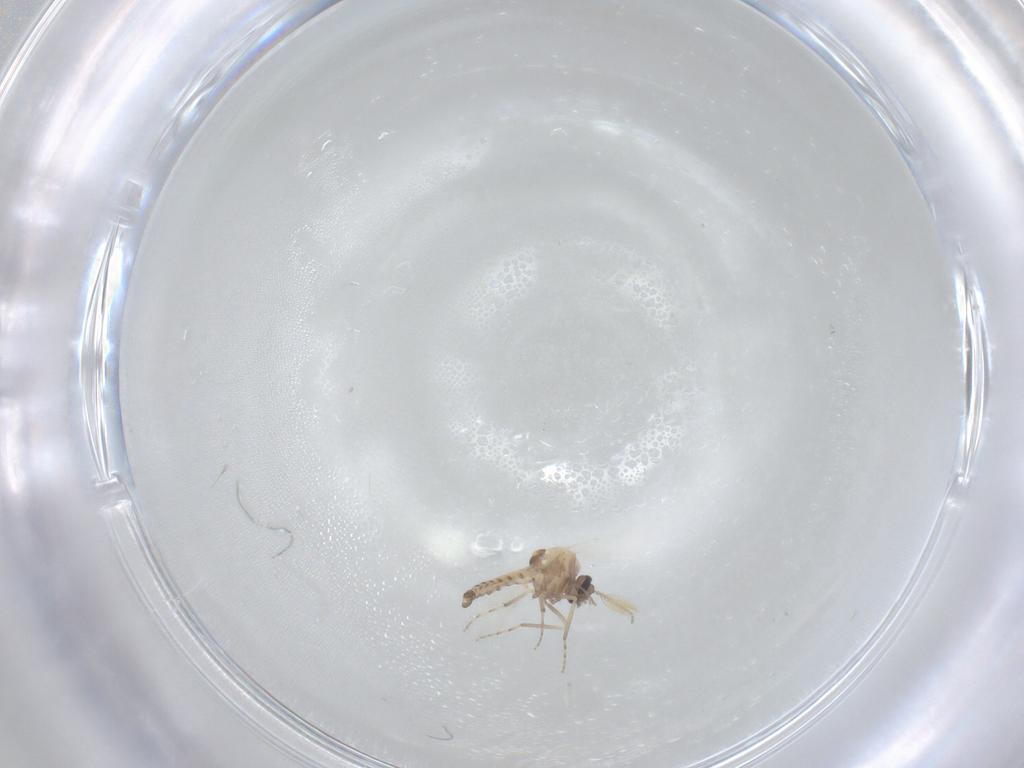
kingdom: Animalia
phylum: Arthropoda
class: Insecta
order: Diptera
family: Ceratopogonidae
